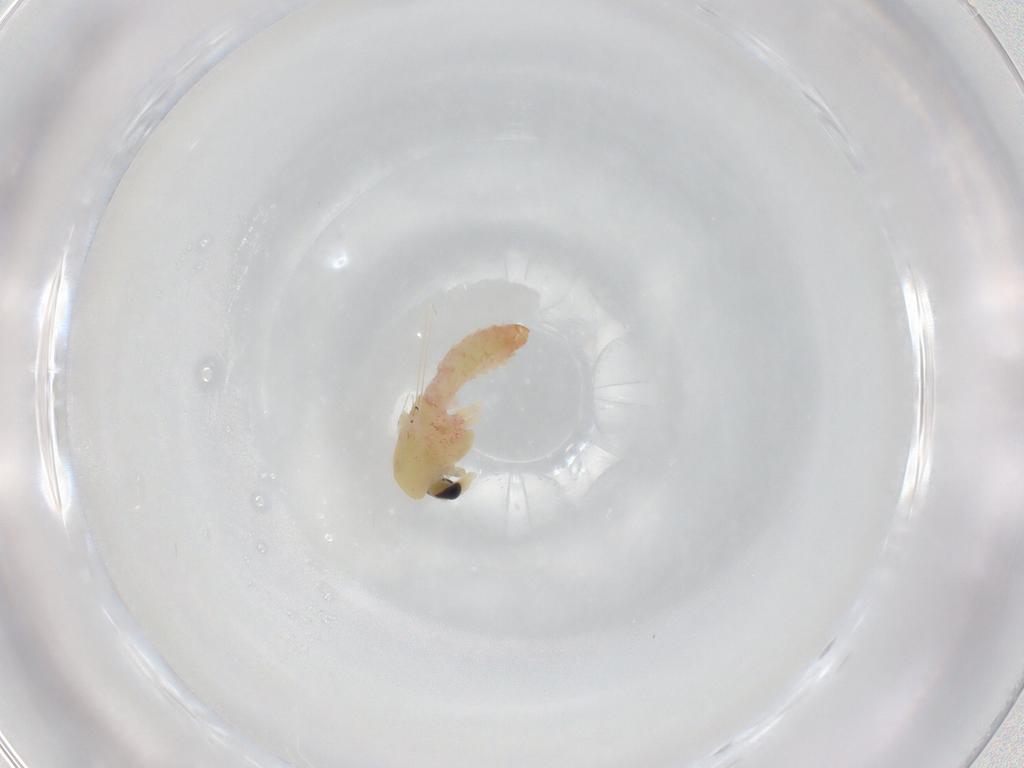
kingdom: Animalia
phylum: Arthropoda
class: Insecta
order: Diptera
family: Chironomidae
